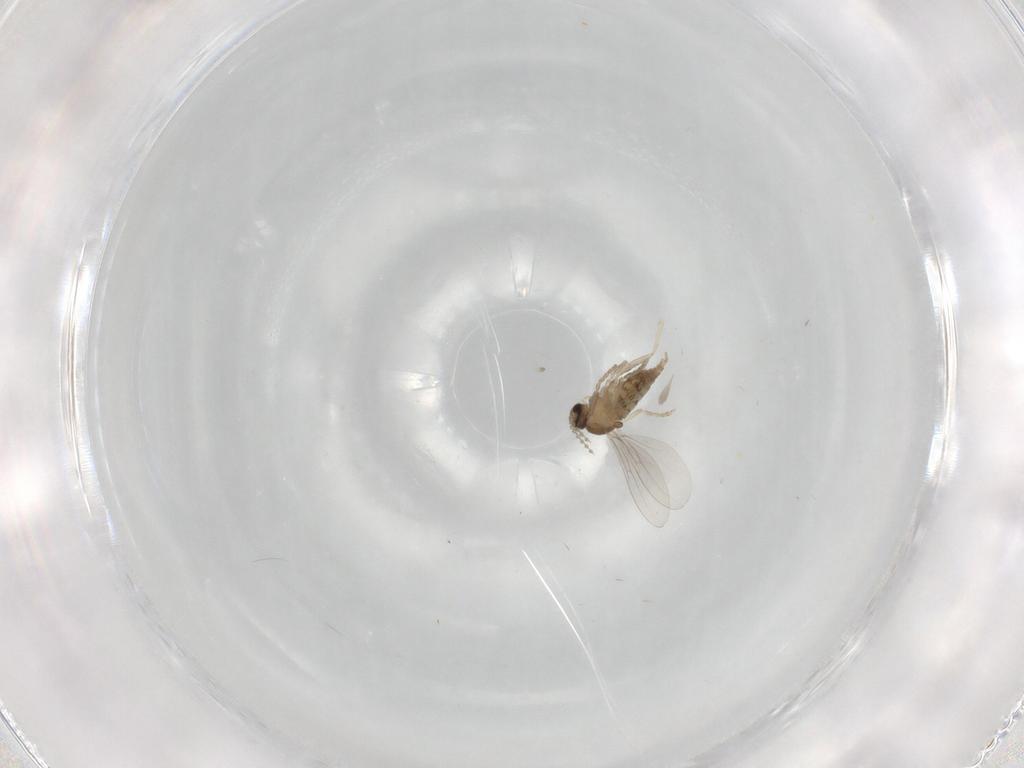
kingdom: Animalia
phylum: Arthropoda
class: Insecta
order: Diptera
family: Cecidomyiidae
